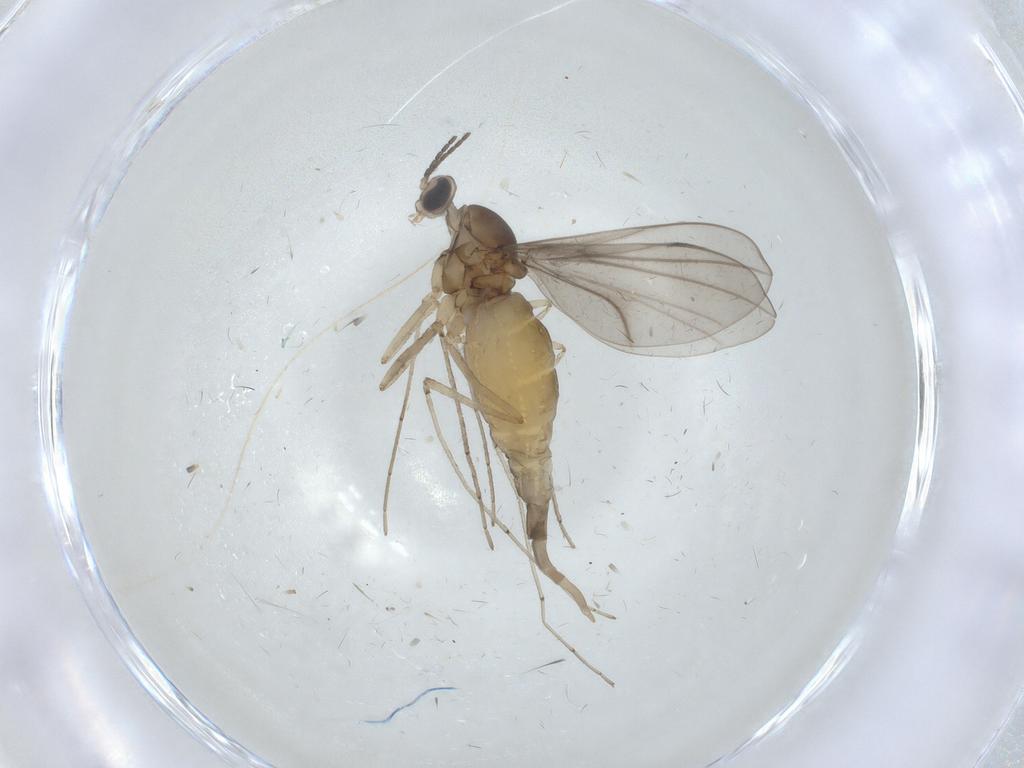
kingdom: Animalia
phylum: Arthropoda
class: Insecta
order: Diptera
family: Cecidomyiidae
